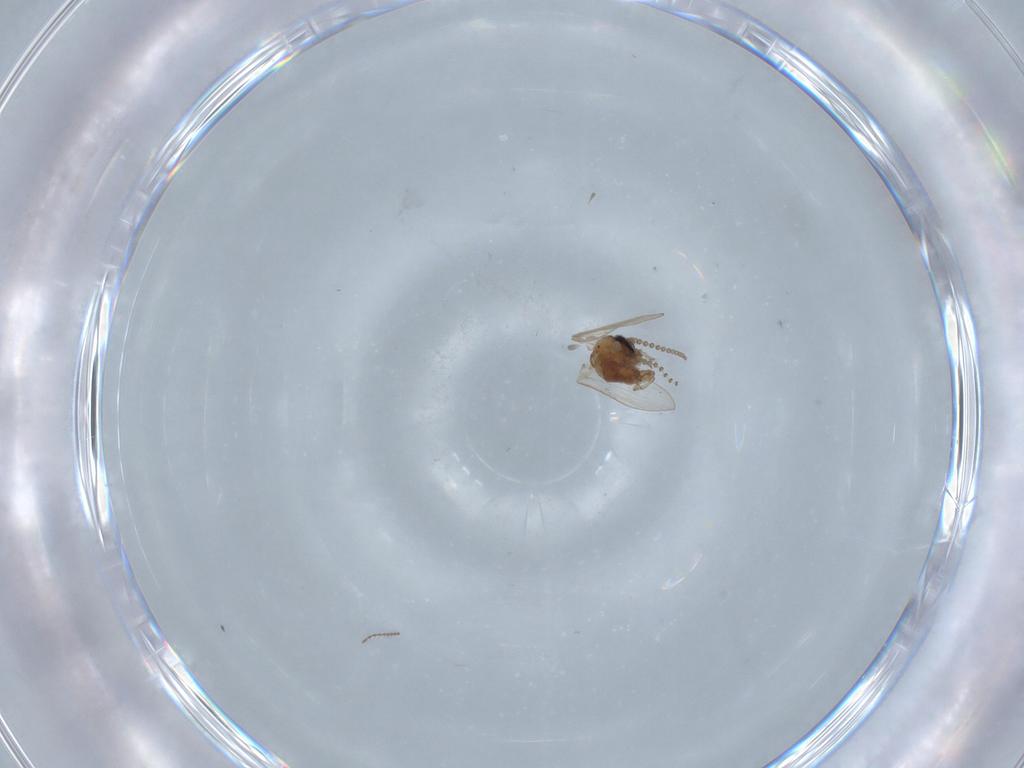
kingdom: Animalia
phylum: Arthropoda
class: Insecta
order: Diptera
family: Psychodidae
